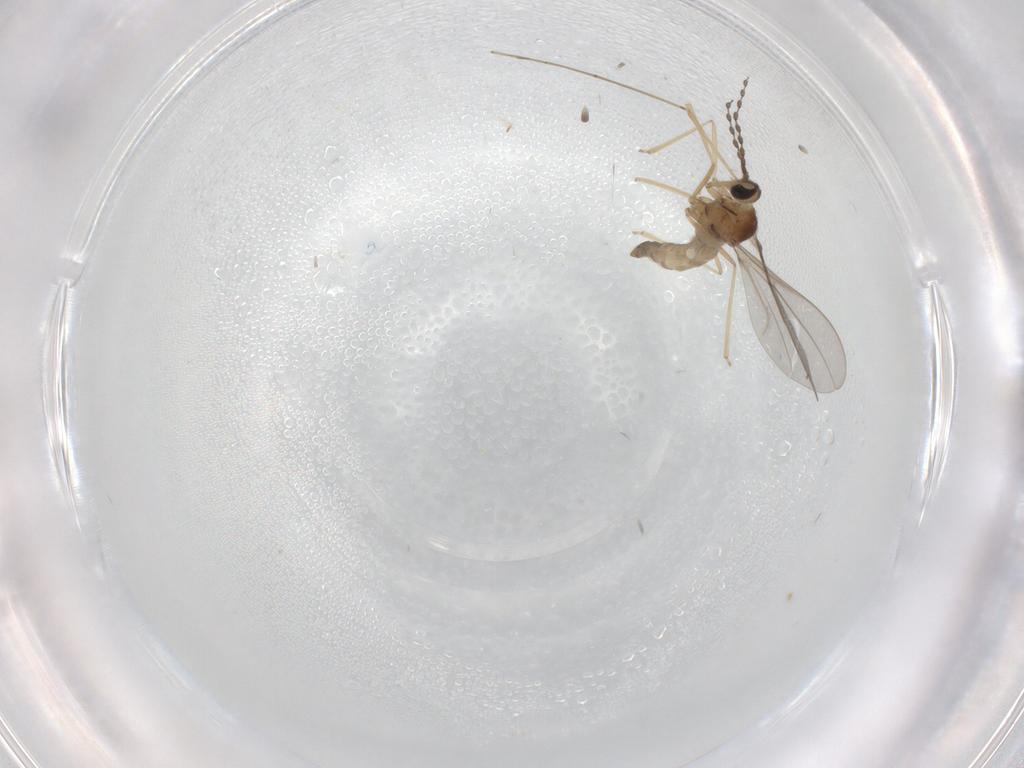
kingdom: Animalia
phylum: Arthropoda
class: Insecta
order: Diptera
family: Cecidomyiidae
